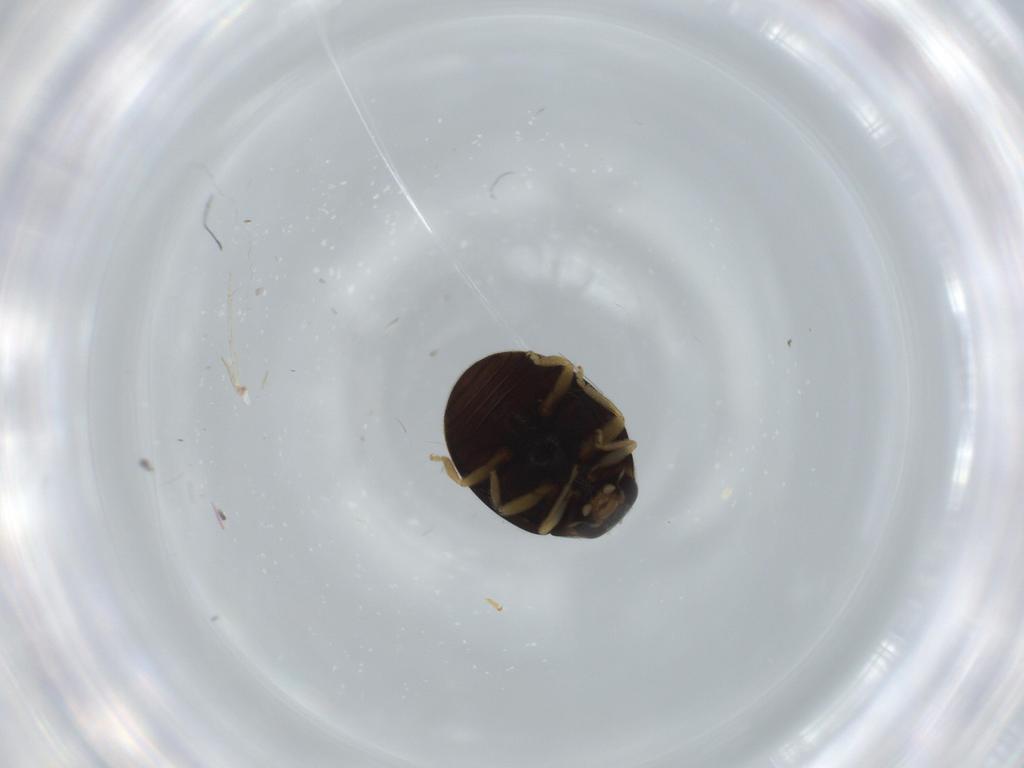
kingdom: Animalia
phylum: Arthropoda
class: Insecta
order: Coleoptera
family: Coccinellidae
